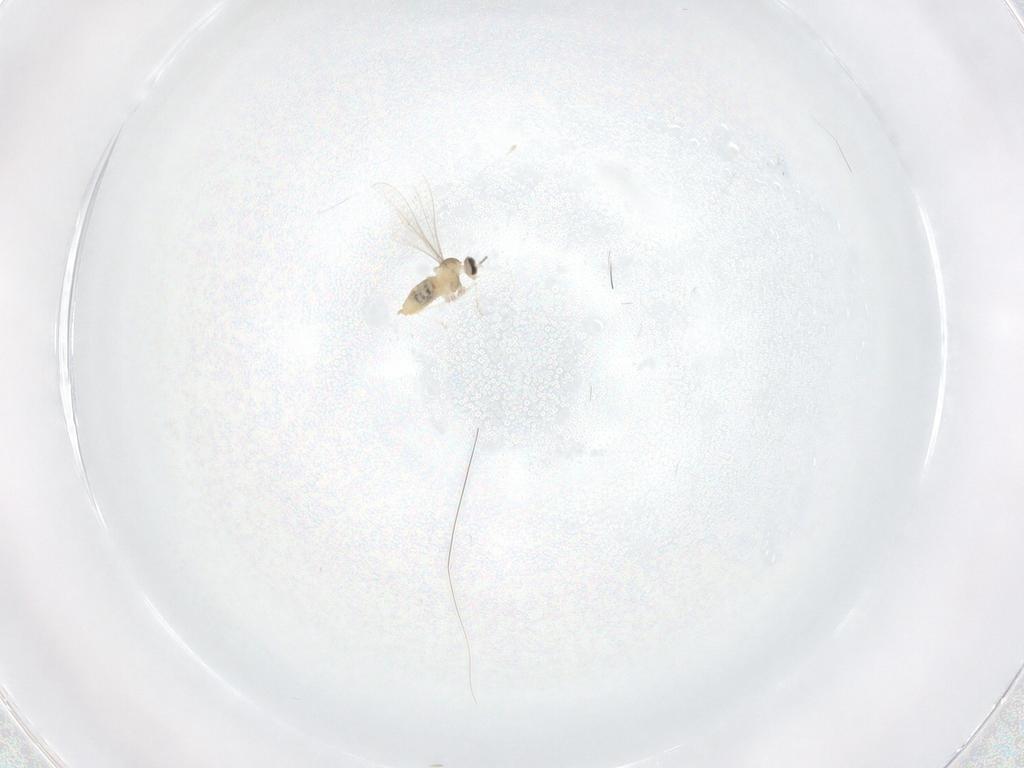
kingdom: Animalia
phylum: Arthropoda
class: Insecta
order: Diptera
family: Cecidomyiidae
